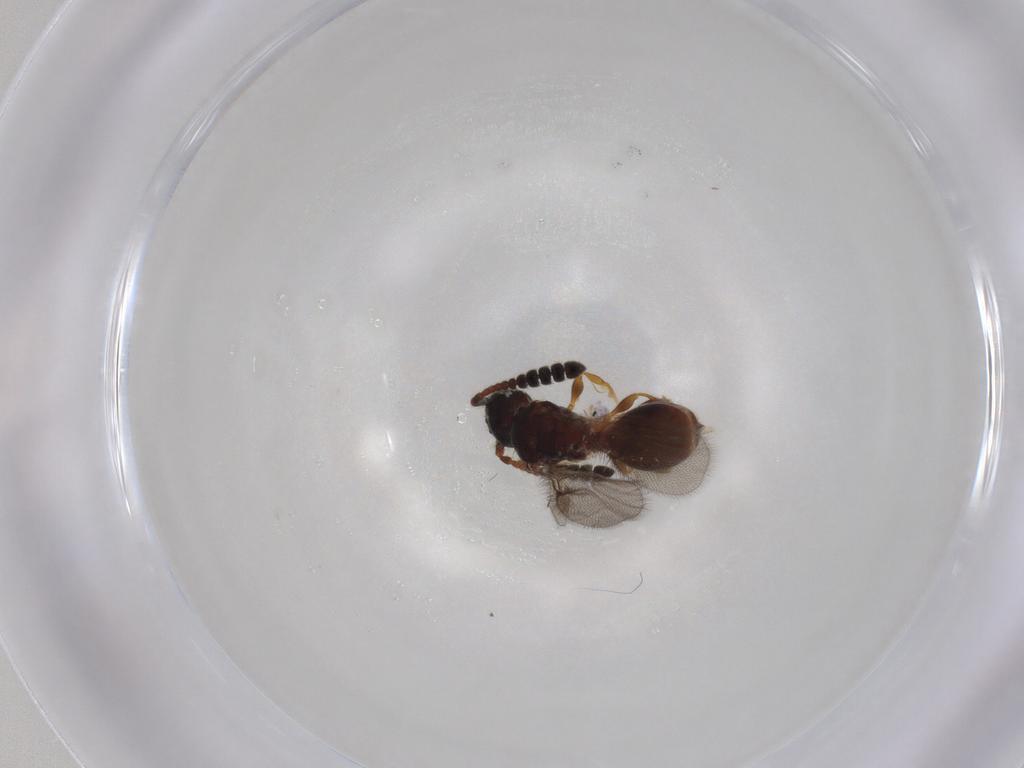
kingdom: Animalia
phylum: Arthropoda
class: Insecta
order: Hymenoptera
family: Diapriidae
